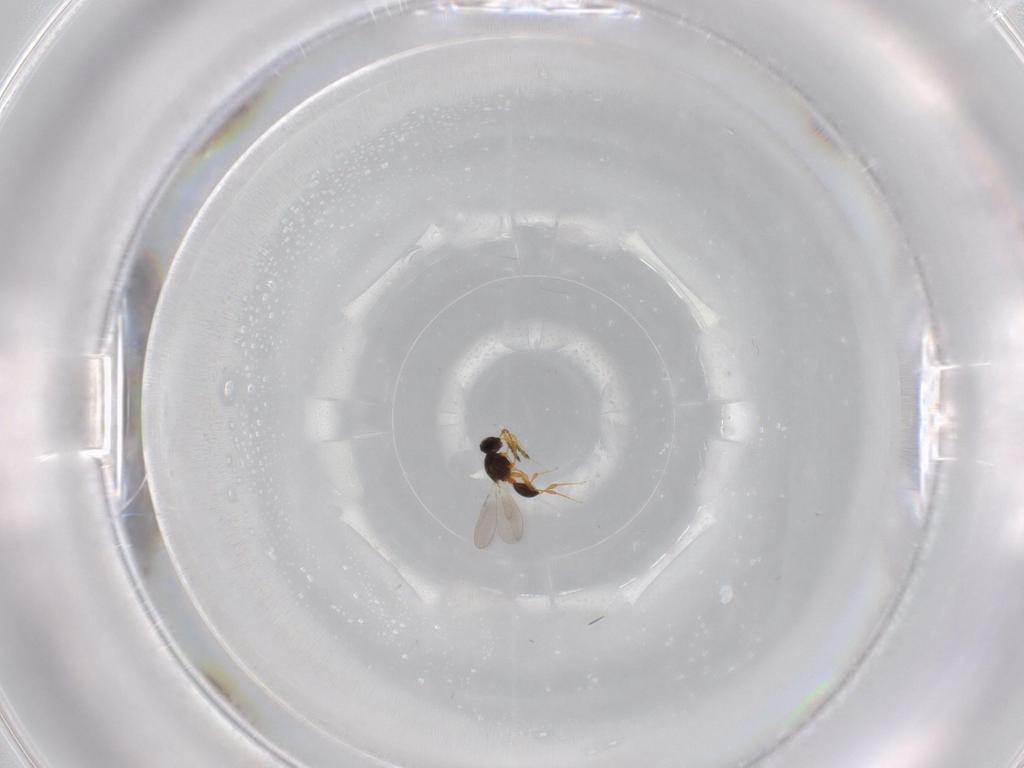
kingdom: Animalia
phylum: Arthropoda
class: Insecta
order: Hymenoptera
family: Platygastridae
